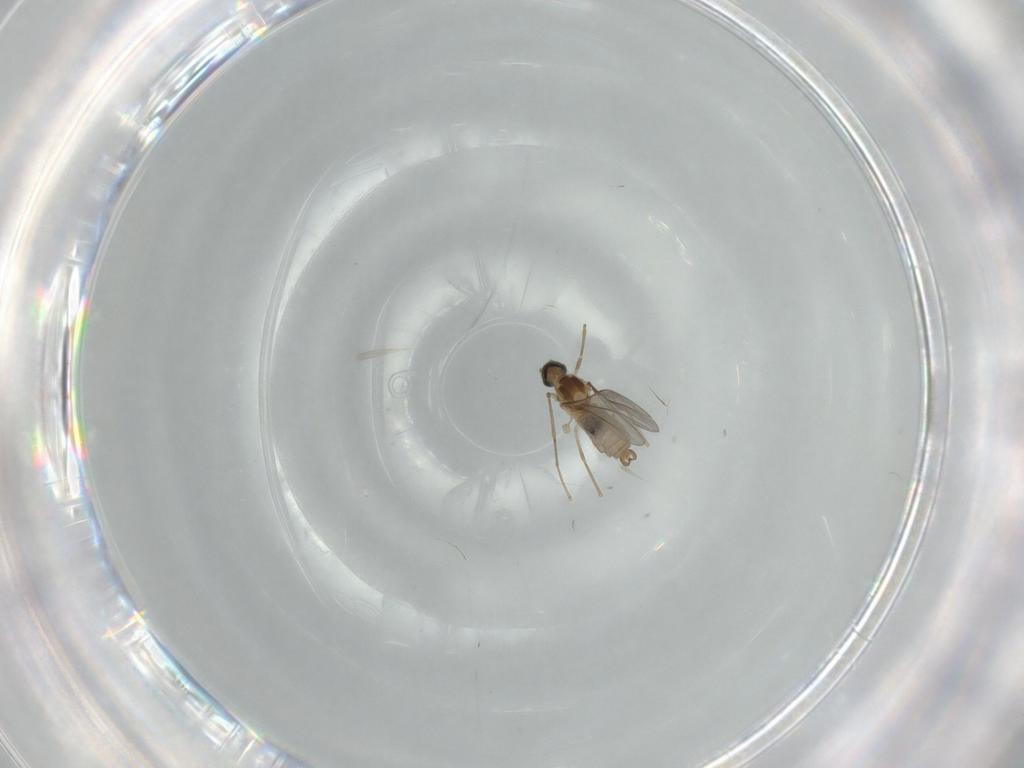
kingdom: Animalia
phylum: Arthropoda
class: Insecta
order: Diptera
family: Cecidomyiidae
